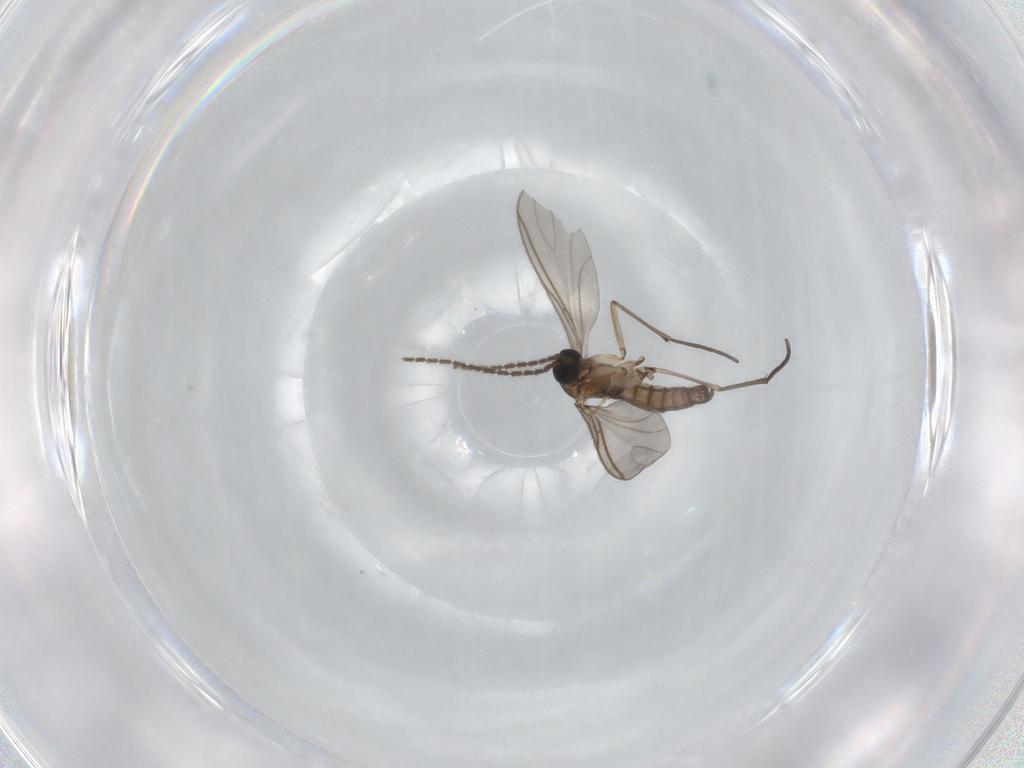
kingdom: Animalia
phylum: Arthropoda
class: Insecta
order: Diptera
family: Sciaridae
